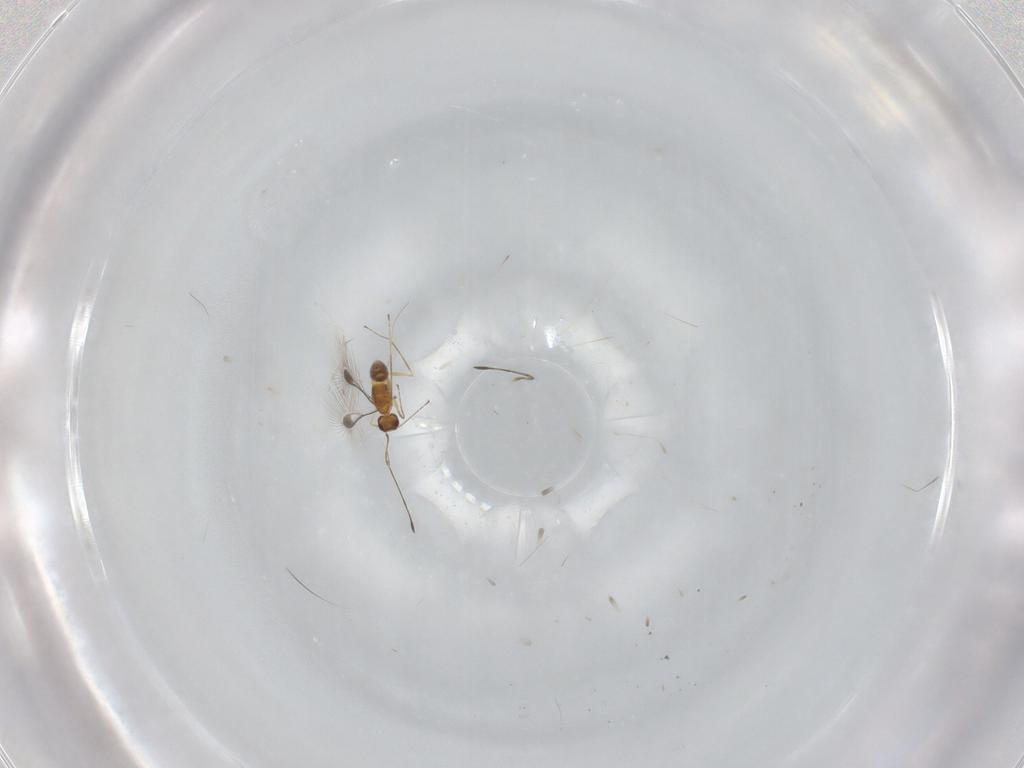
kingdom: Animalia
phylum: Arthropoda
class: Insecta
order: Hymenoptera
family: Mymaridae
